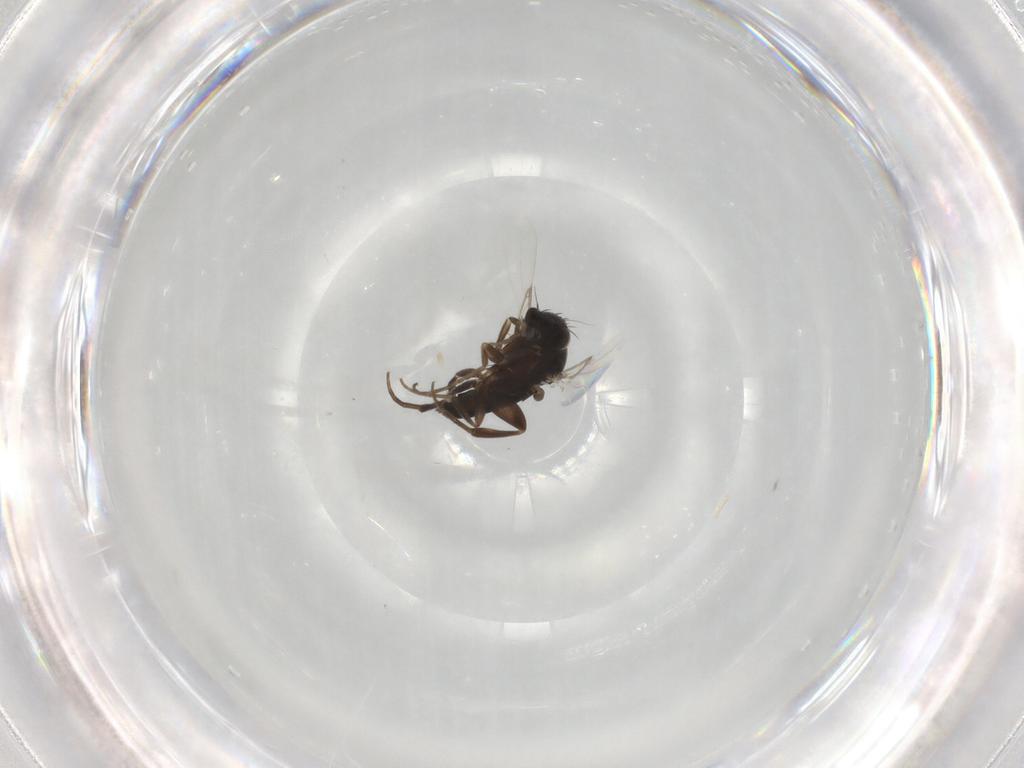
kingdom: Animalia
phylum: Arthropoda
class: Insecta
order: Diptera
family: Phoridae
